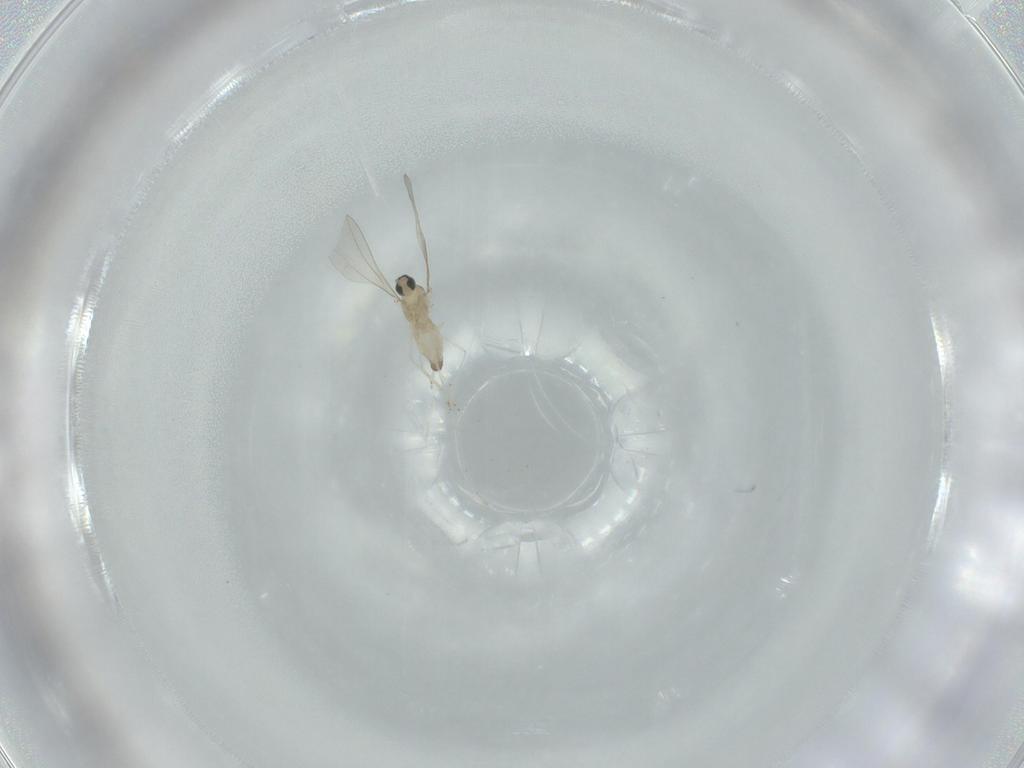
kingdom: Animalia
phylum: Arthropoda
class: Insecta
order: Diptera
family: Cecidomyiidae
